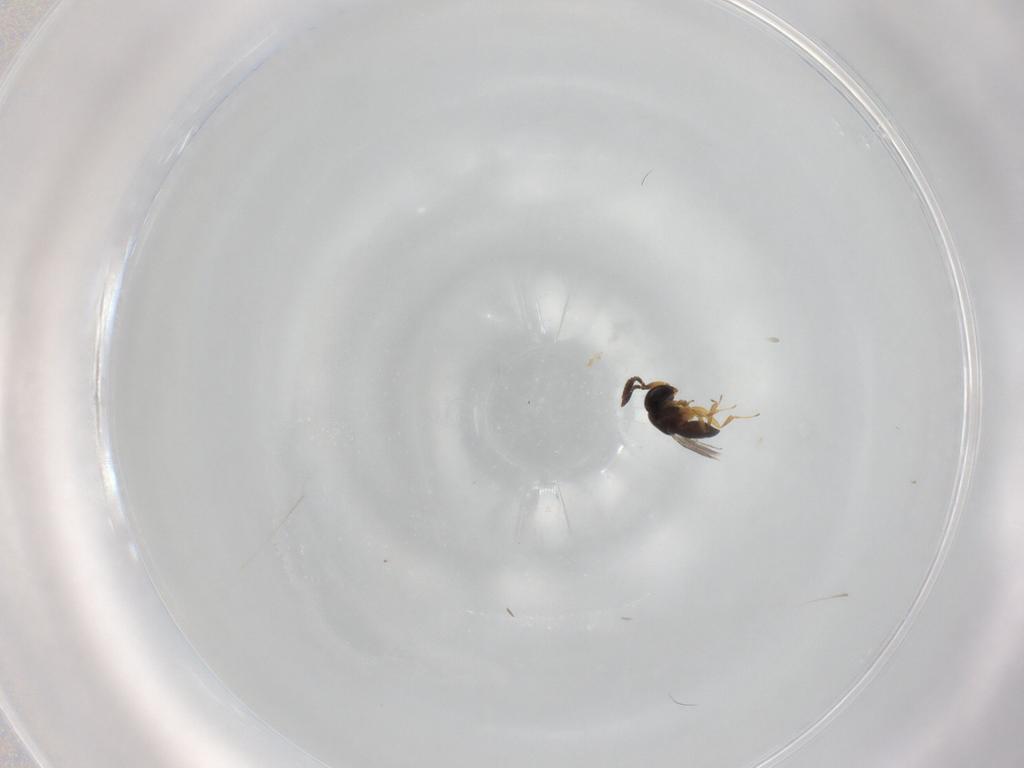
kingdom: Animalia
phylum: Arthropoda
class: Insecta
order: Hymenoptera
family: Scelionidae
